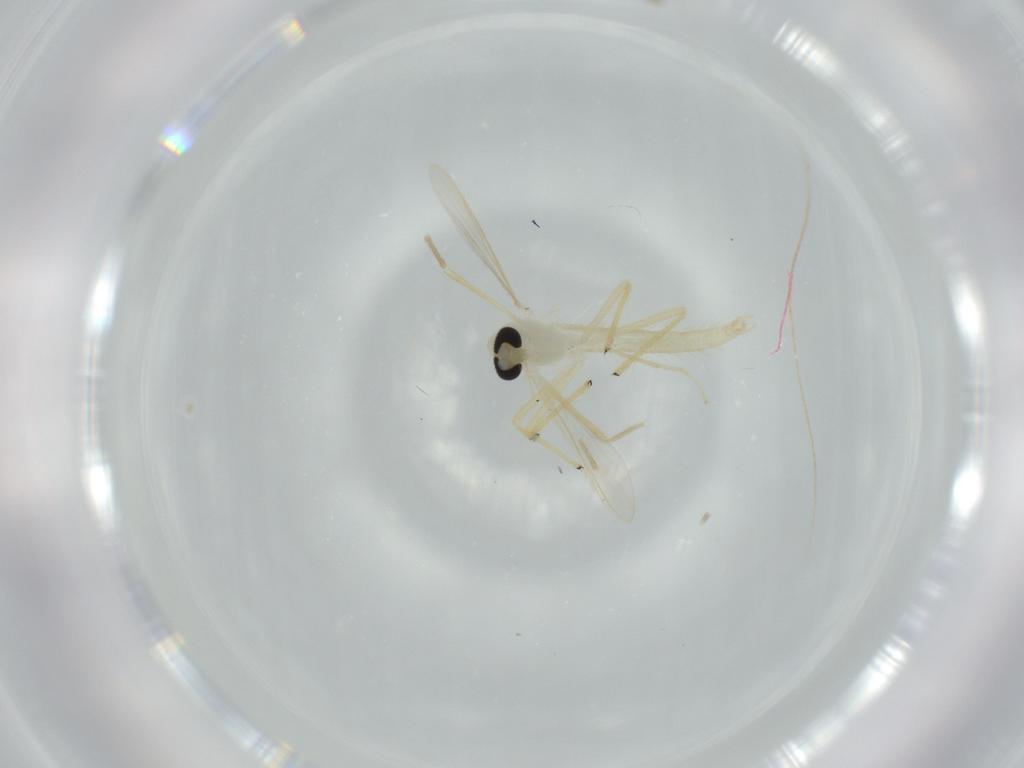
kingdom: Animalia
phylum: Arthropoda
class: Insecta
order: Diptera
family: Chironomidae
